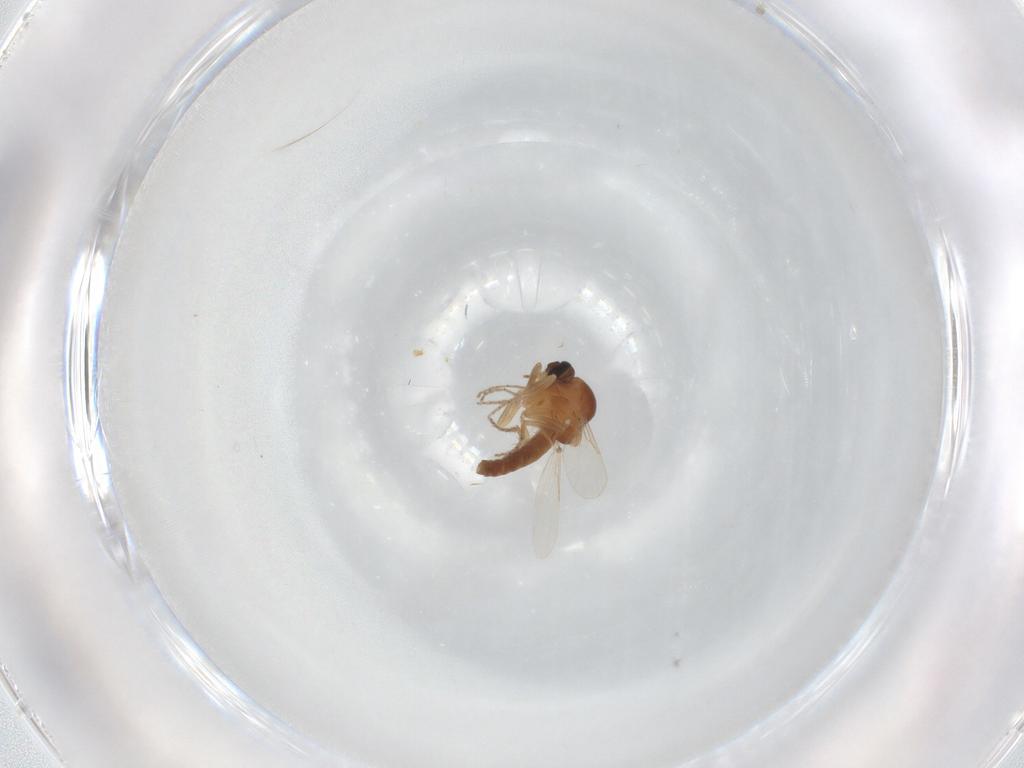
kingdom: Animalia
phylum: Arthropoda
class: Insecta
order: Diptera
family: Ceratopogonidae
